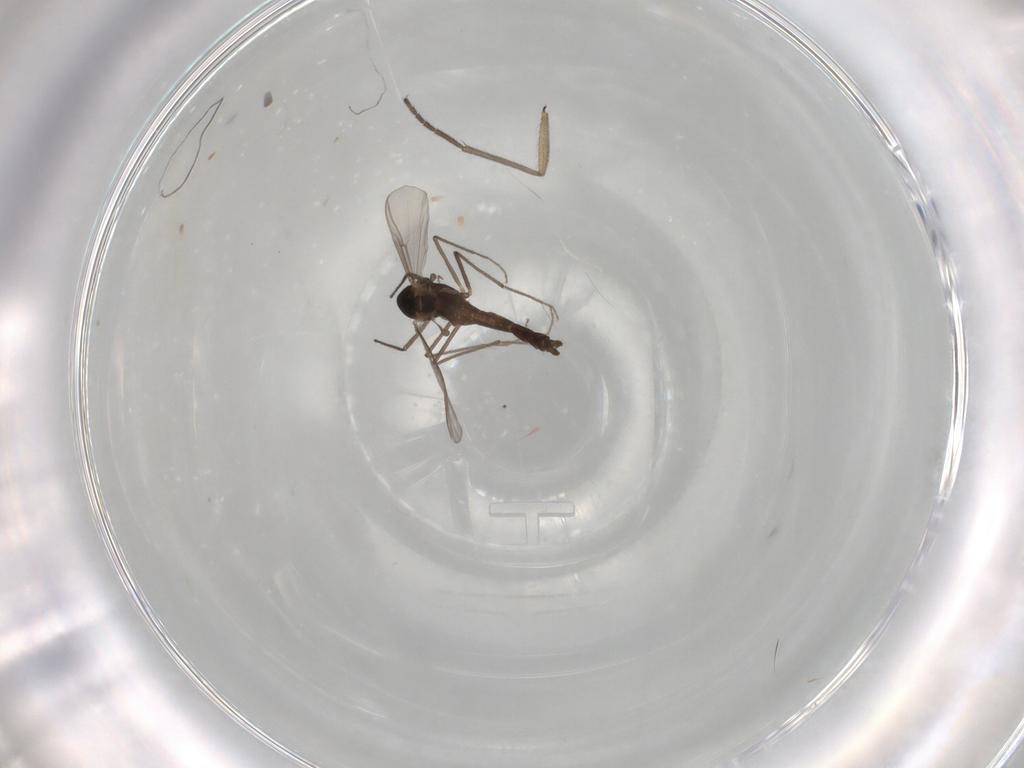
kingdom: Animalia
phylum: Arthropoda
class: Insecta
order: Diptera
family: Chironomidae
